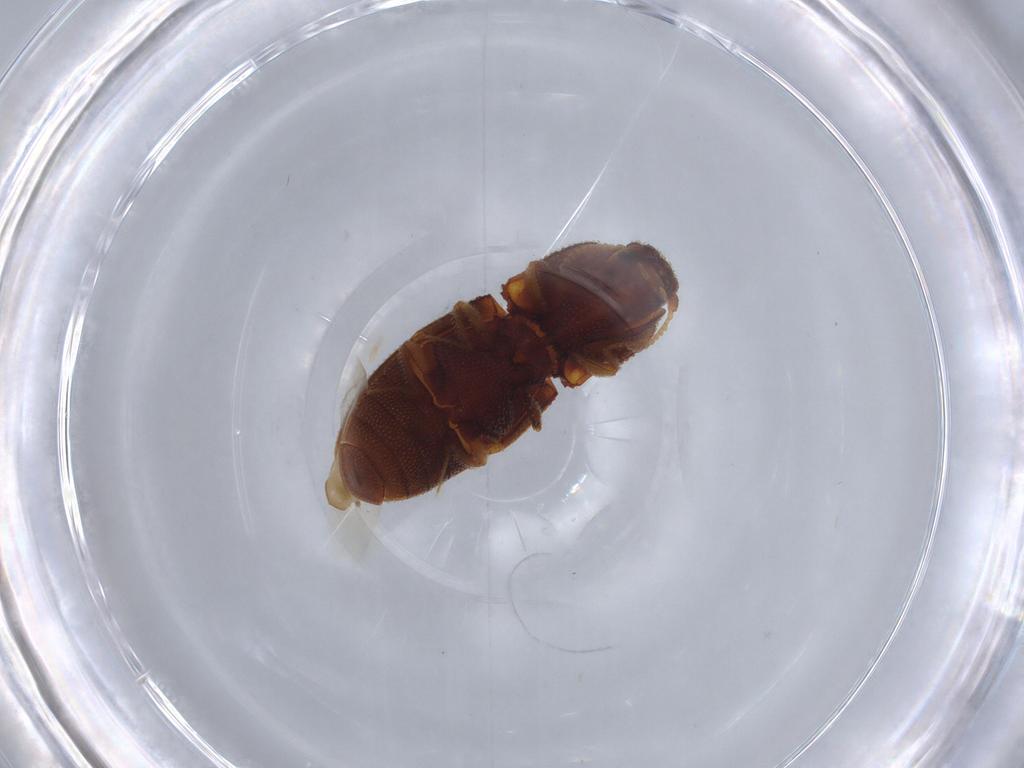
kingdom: Animalia
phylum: Arthropoda
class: Insecta
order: Coleoptera
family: Elateridae
